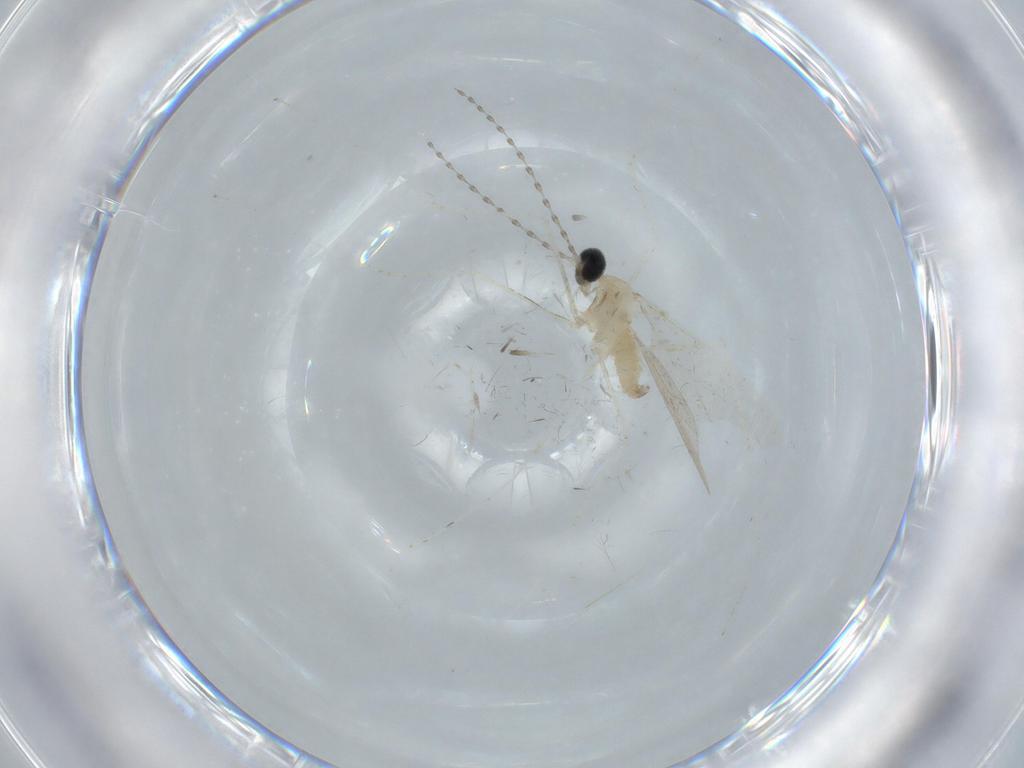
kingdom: Animalia
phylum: Arthropoda
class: Insecta
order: Diptera
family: Cecidomyiidae
